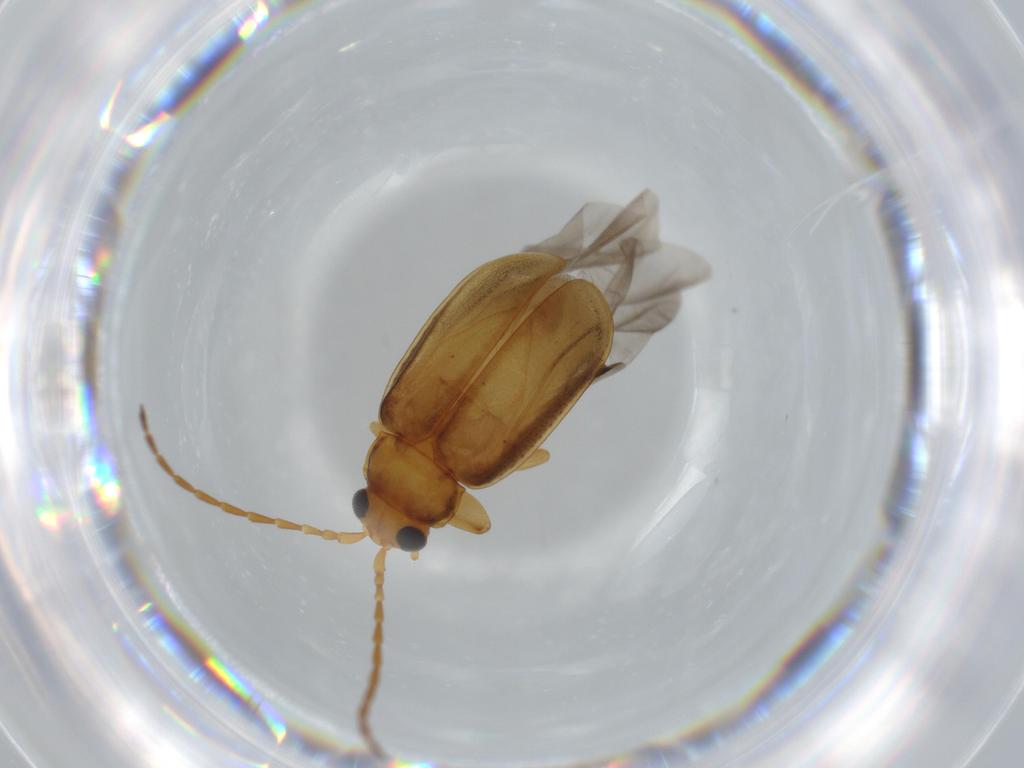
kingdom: Animalia
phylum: Arthropoda
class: Insecta
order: Coleoptera
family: Chrysomelidae
